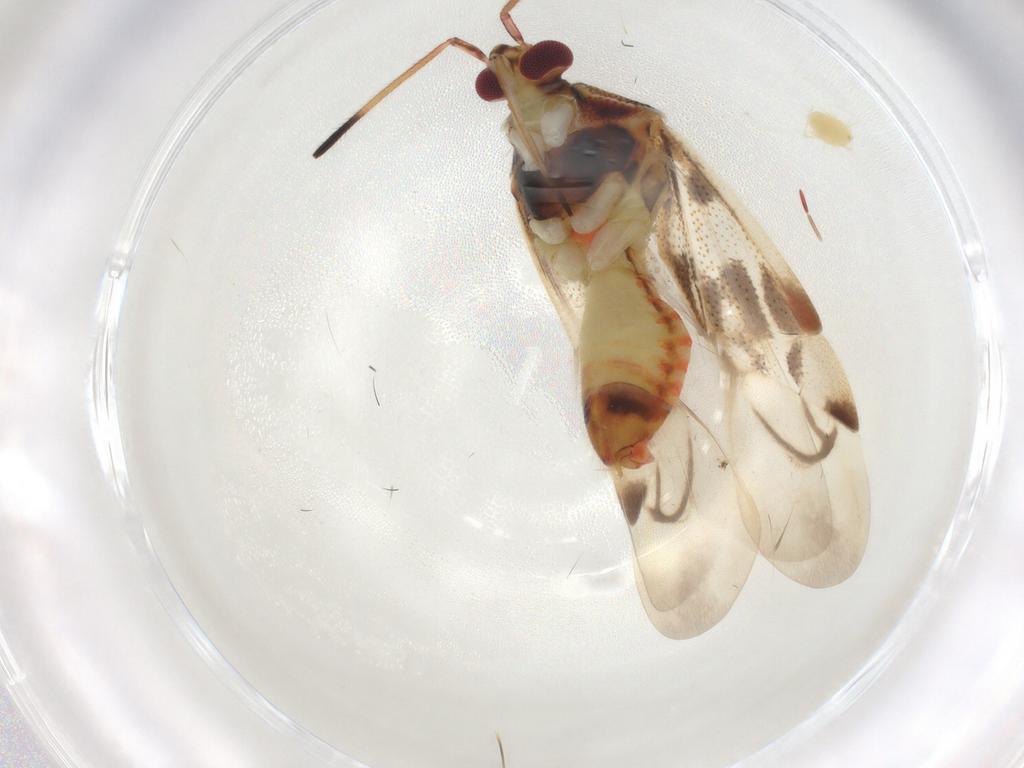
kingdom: Animalia
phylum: Arthropoda
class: Insecta
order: Hemiptera
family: Miridae
